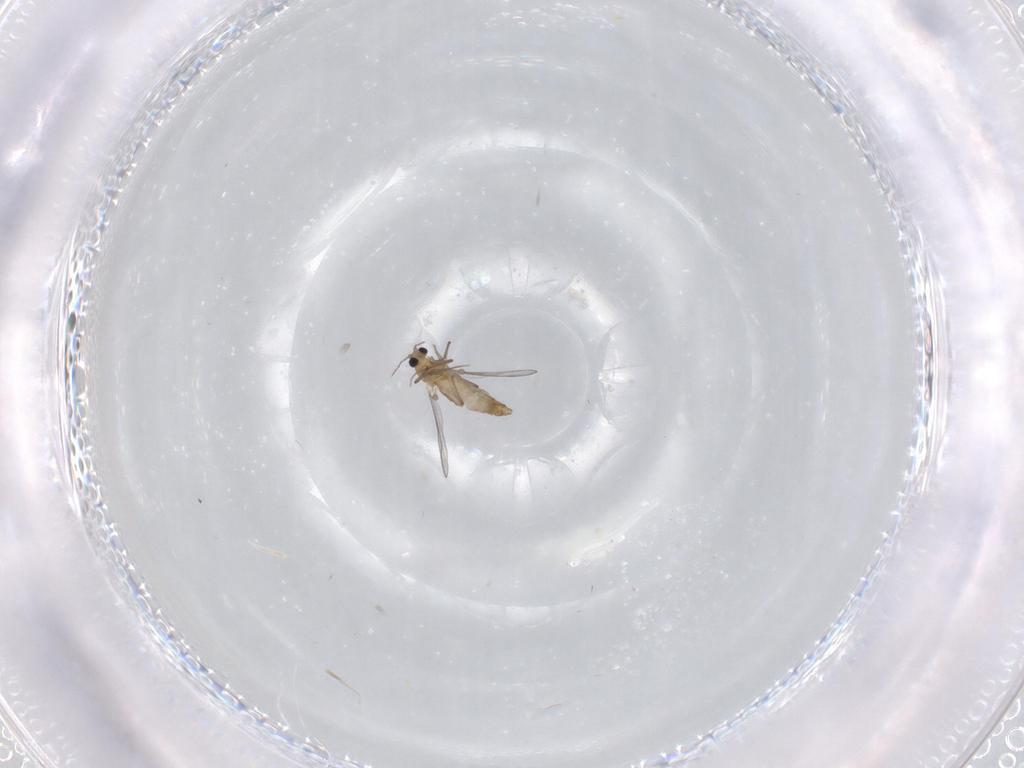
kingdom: Animalia
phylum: Arthropoda
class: Insecta
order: Diptera
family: Chironomidae
